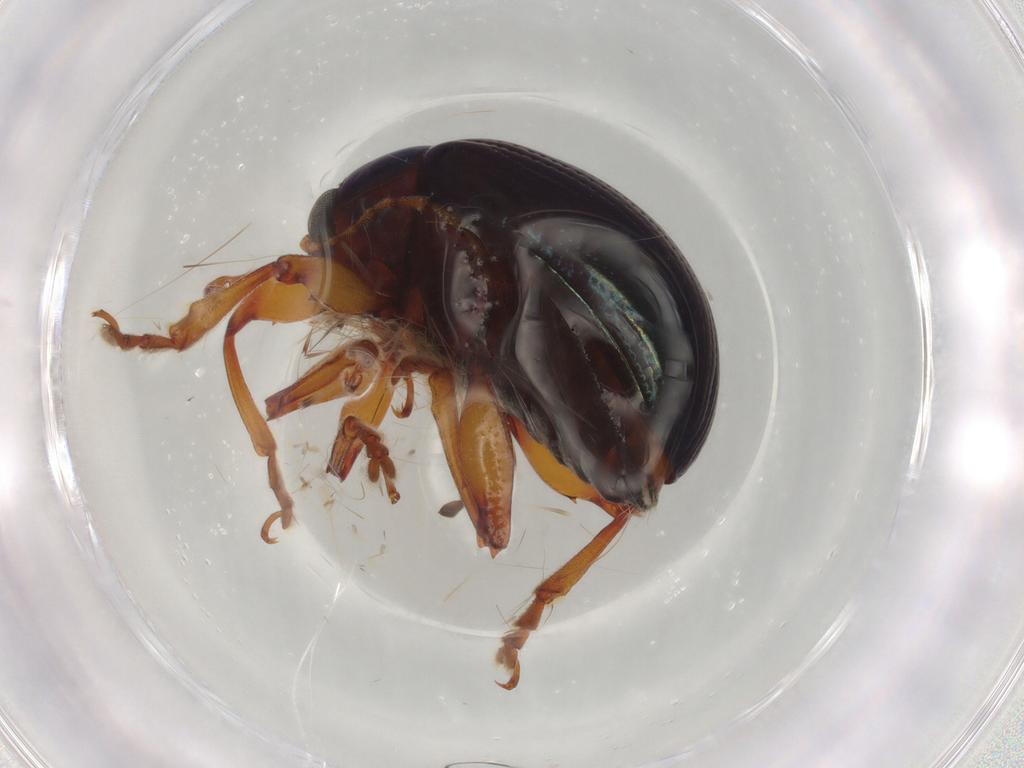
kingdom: Animalia
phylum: Arthropoda
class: Insecta
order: Coleoptera
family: Chrysomelidae
